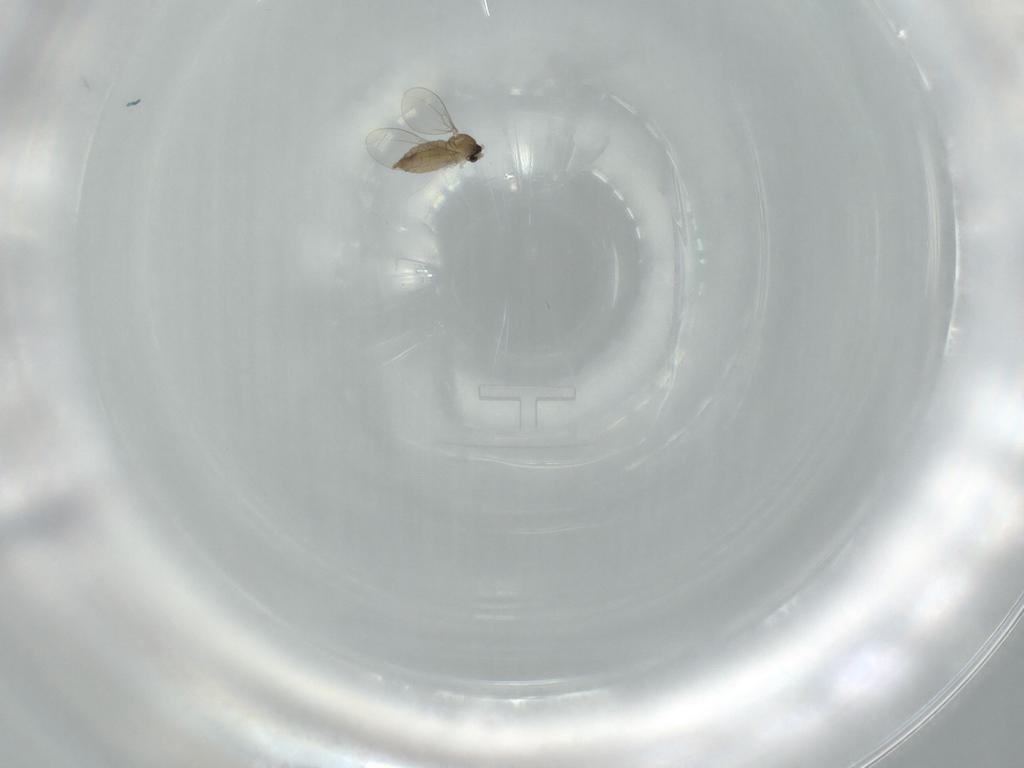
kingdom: Animalia
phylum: Arthropoda
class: Insecta
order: Diptera
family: Cecidomyiidae
